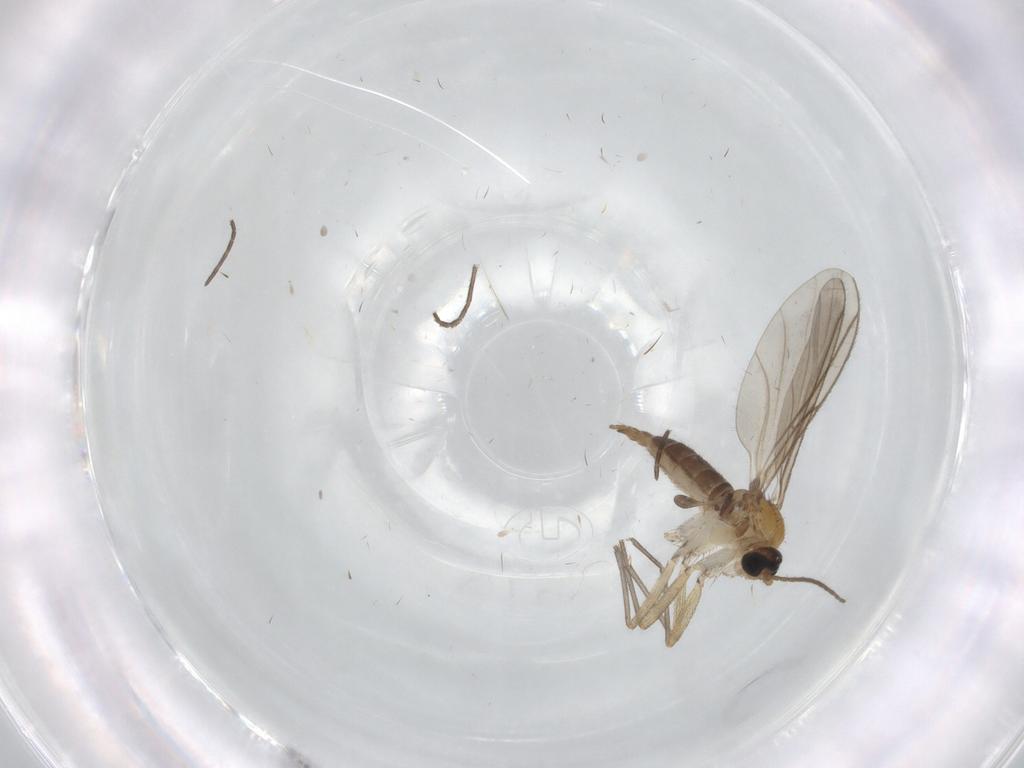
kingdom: Animalia
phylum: Arthropoda
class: Insecta
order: Diptera
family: Sciaridae
